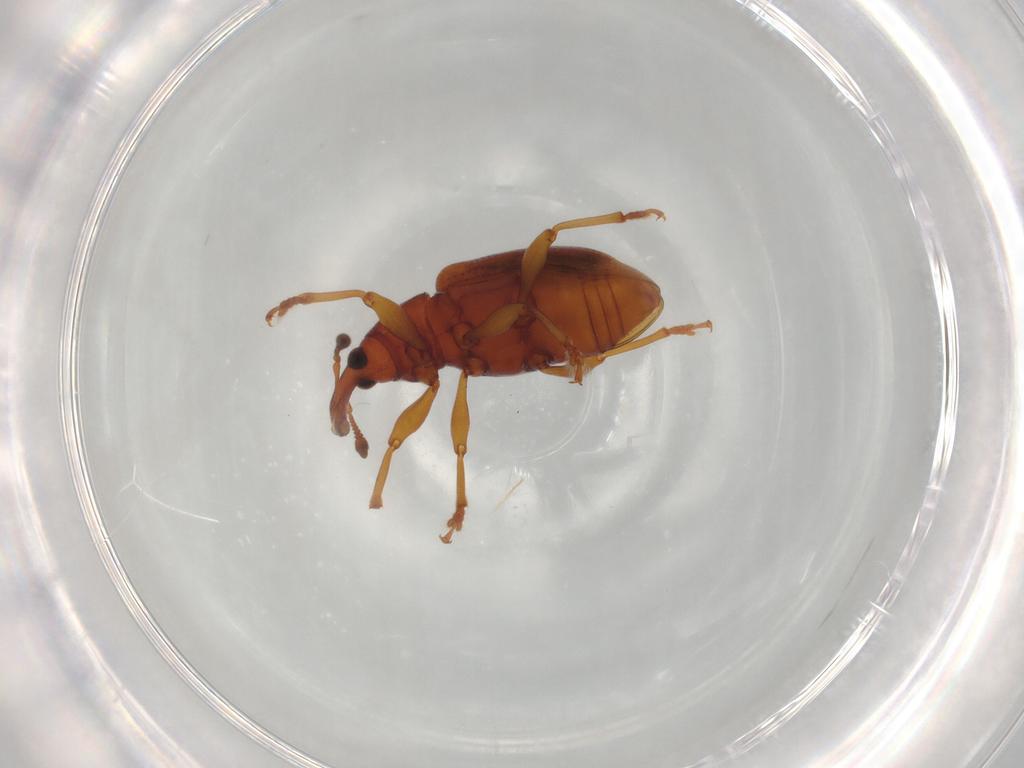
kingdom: Animalia
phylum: Arthropoda
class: Insecta
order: Coleoptera
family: Curculionidae
